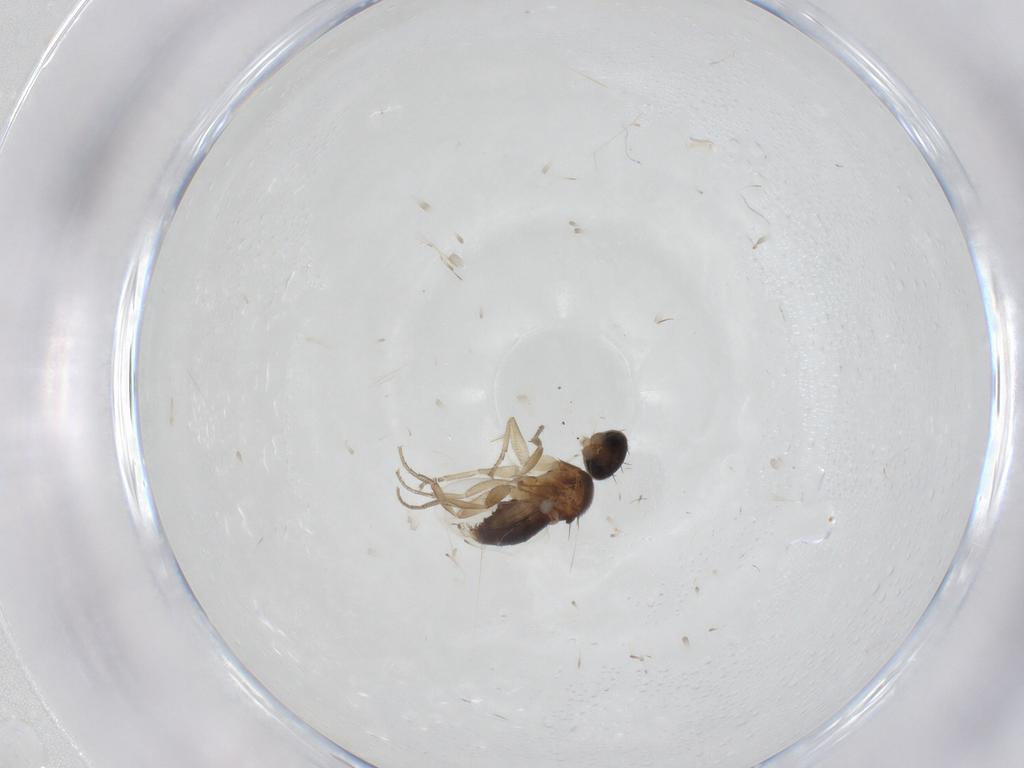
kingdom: Animalia
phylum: Arthropoda
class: Insecta
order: Diptera
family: Phoridae
